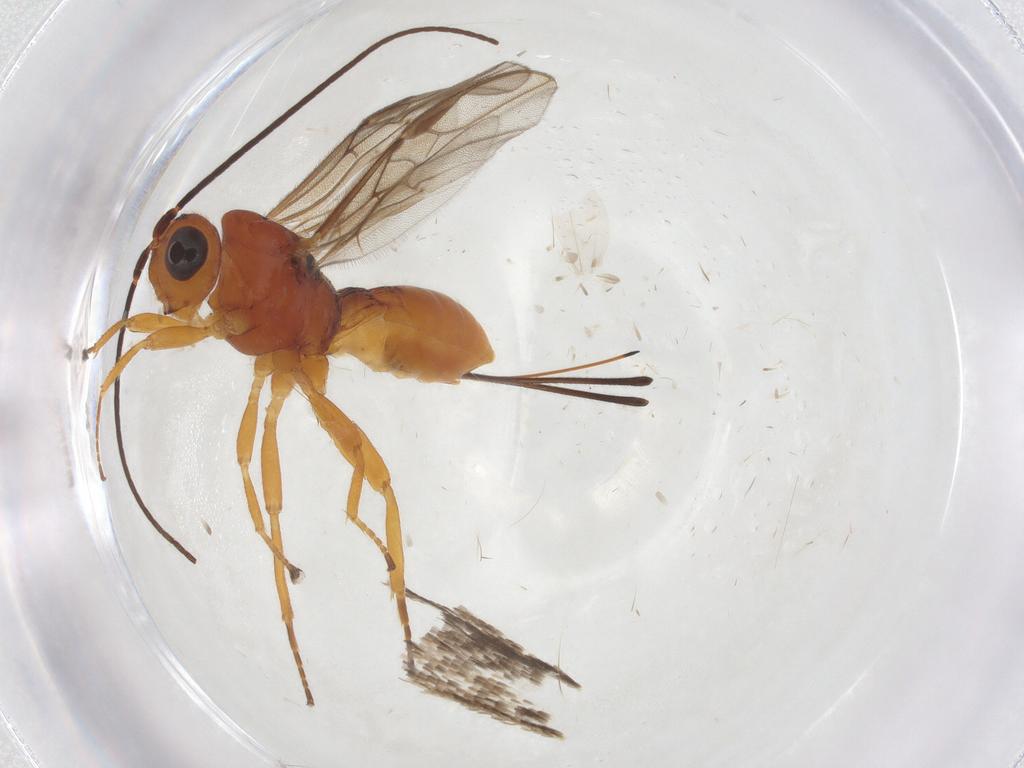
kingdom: Animalia
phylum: Arthropoda
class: Insecta
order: Hymenoptera
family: Braconidae
